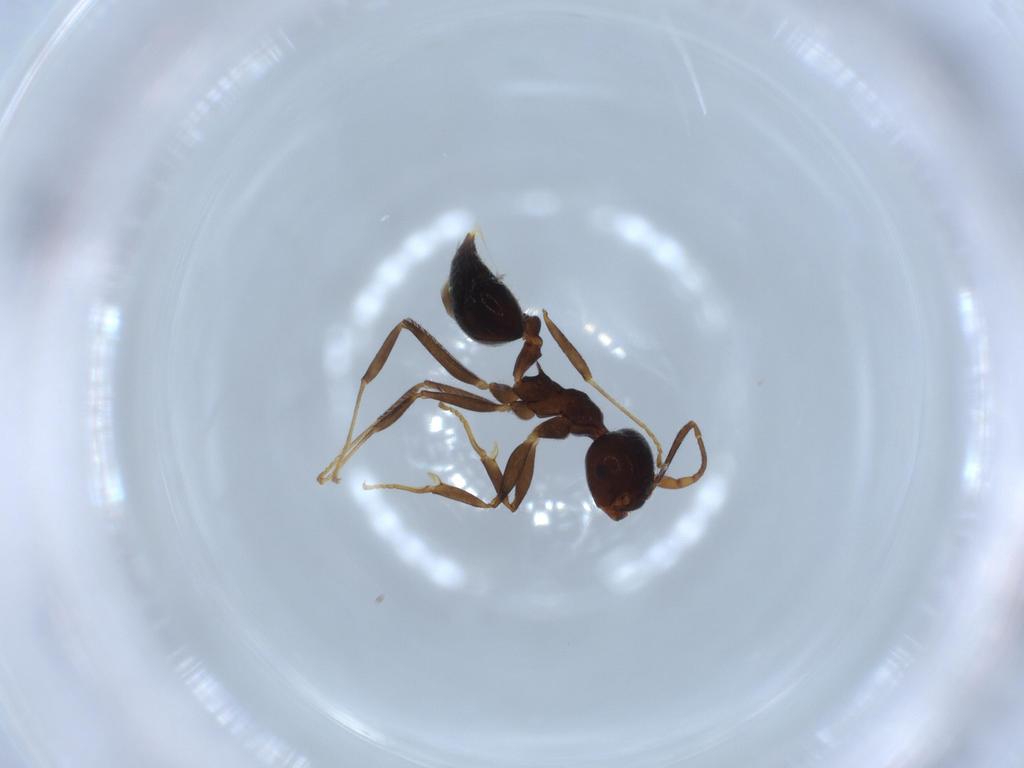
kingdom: Animalia
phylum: Arthropoda
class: Insecta
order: Hymenoptera
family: Formicidae
